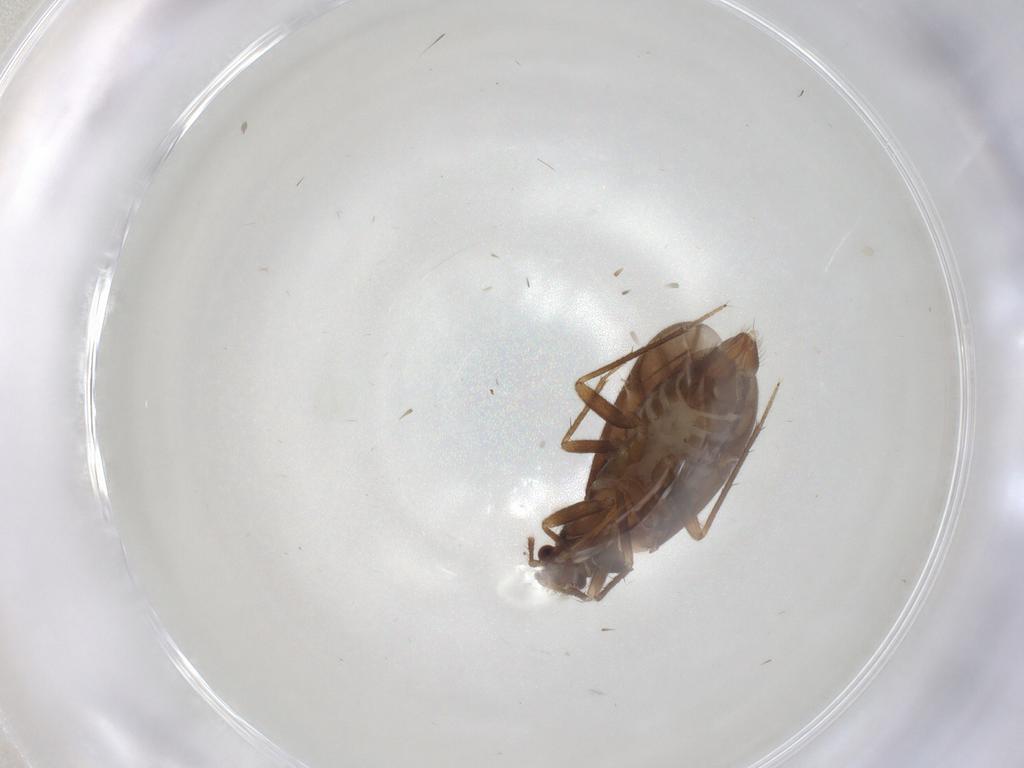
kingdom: Animalia
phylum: Arthropoda
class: Insecta
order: Hemiptera
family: Ceratocombidae
